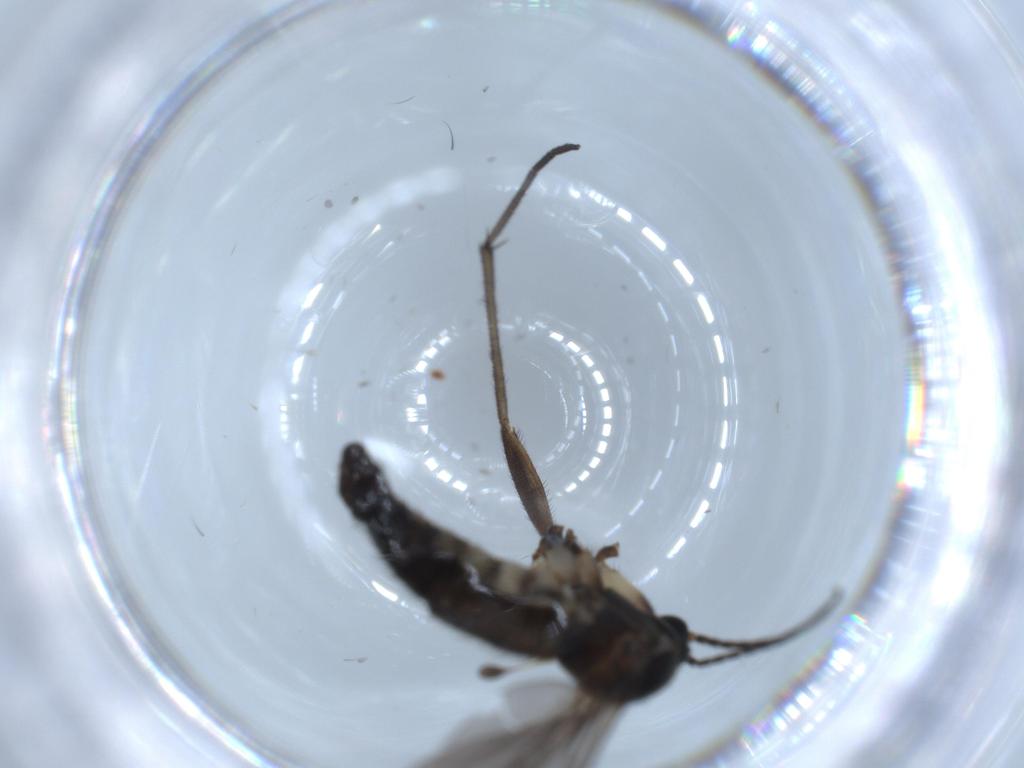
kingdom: Animalia
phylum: Arthropoda
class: Insecta
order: Diptera
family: Sciaridae
